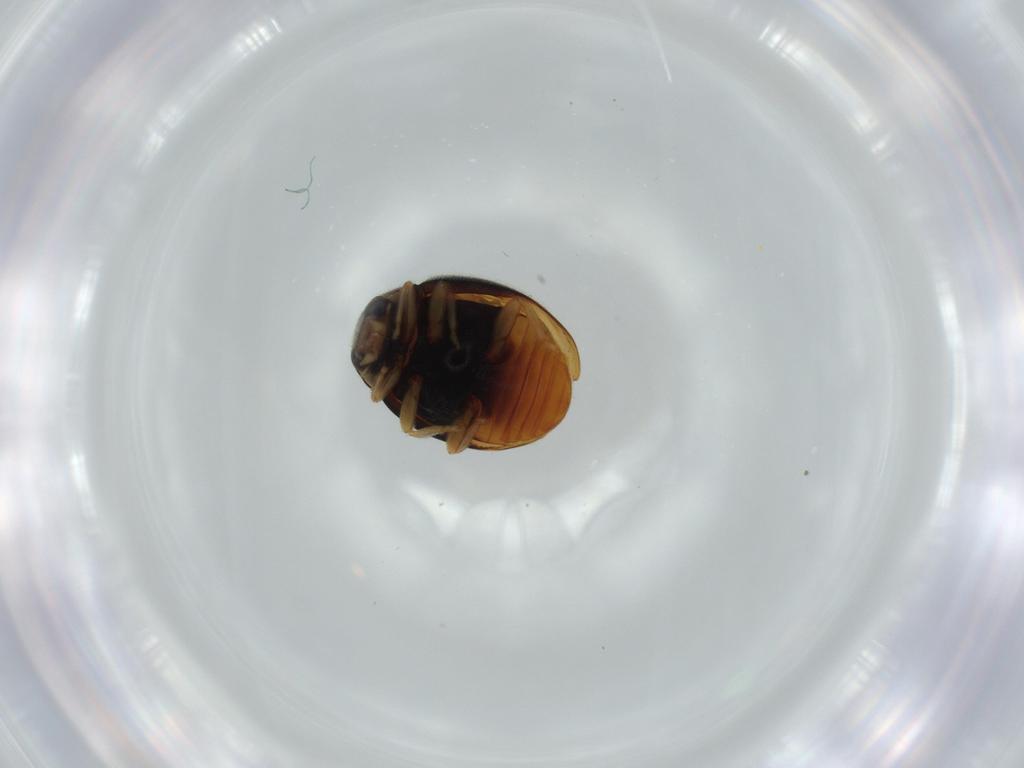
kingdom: Animalia
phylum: Arthropoda
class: Insecta
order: Coleoptera
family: Coccinellidae
